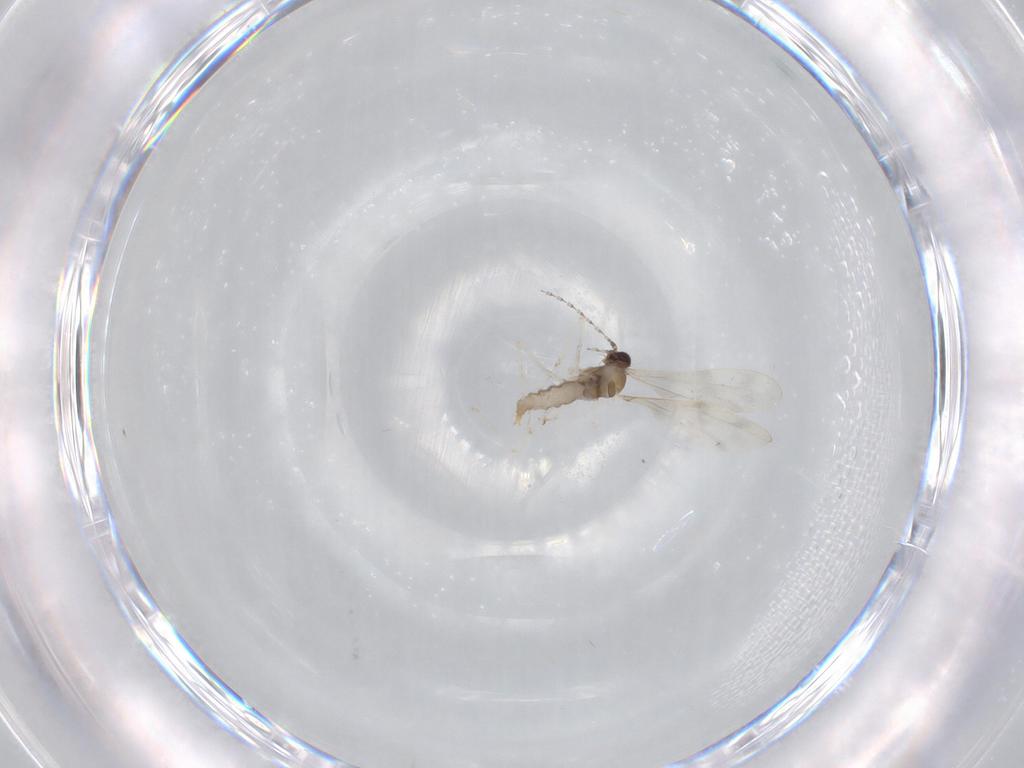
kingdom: Animalia
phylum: Arthropoda
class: Insecta
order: Diptera
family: Cecidomyiidae
